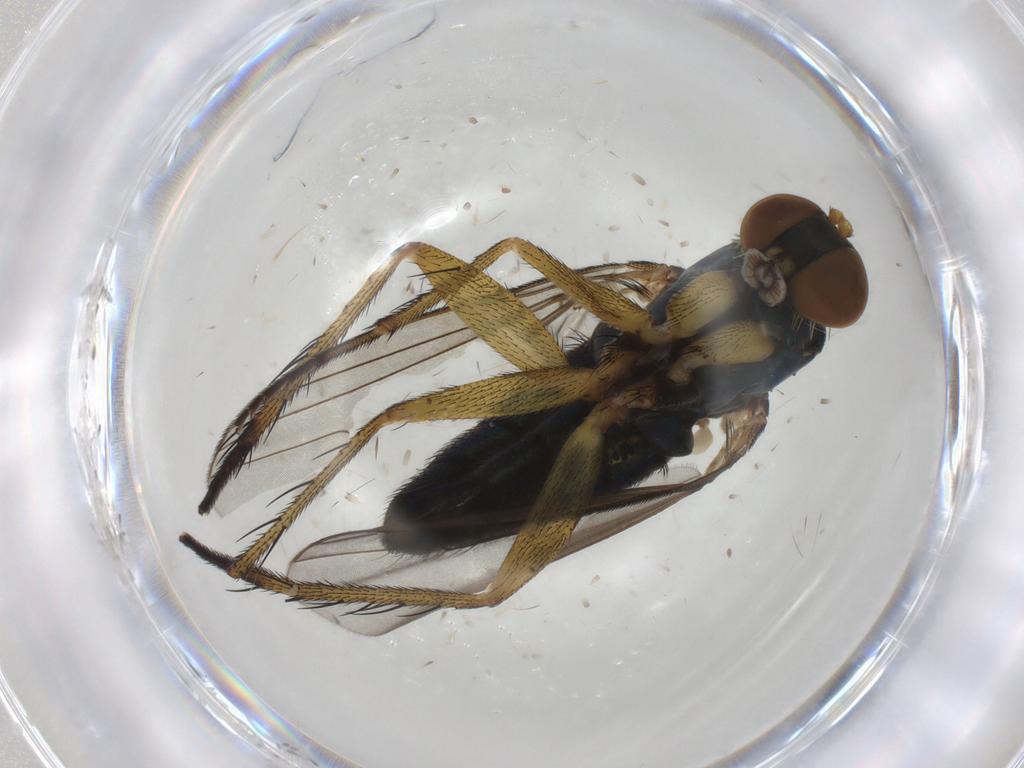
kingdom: Animalia
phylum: Arthropoda
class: Insecta
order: Diptera
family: Dolichopodidae
